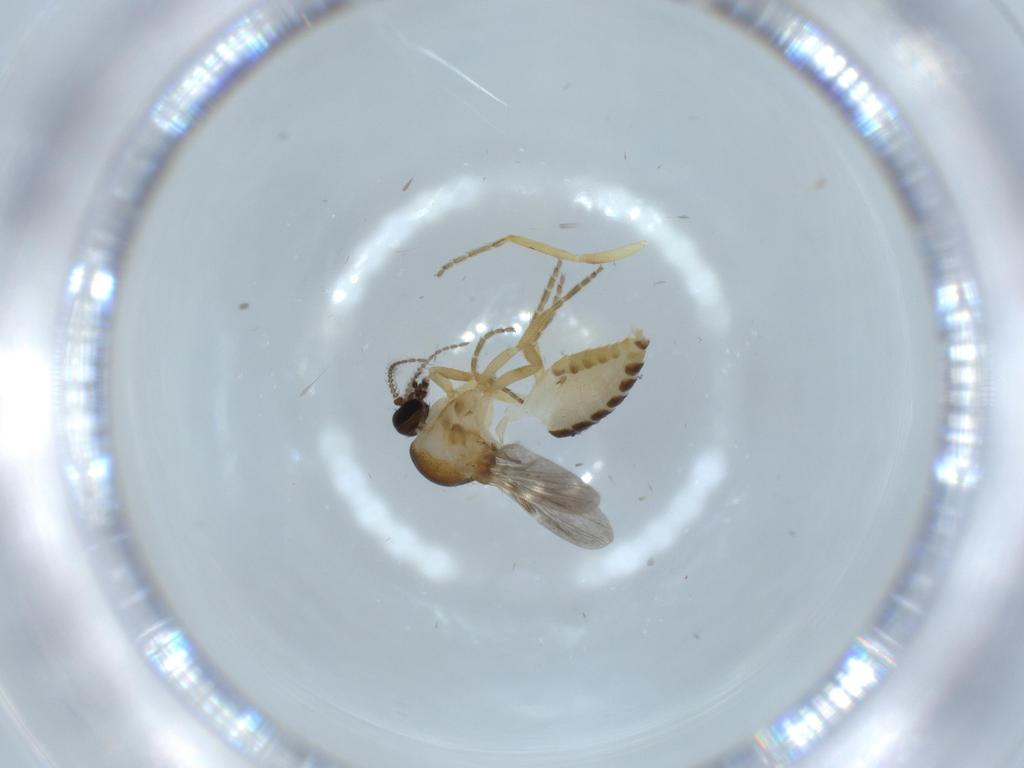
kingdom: Animalia
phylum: Arthropoda
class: Insecta
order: Diptera
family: Ceratopogonidae
